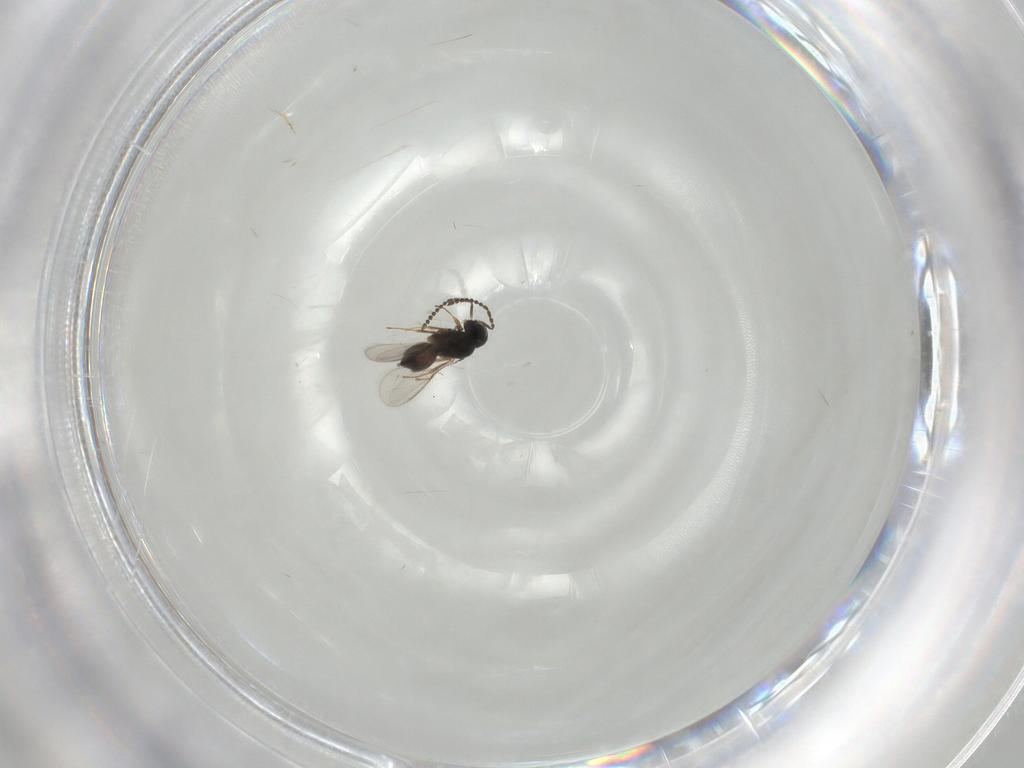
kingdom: Animalia
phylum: Arthropoda
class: Insecta
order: Hymenoptera
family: Scelionidae
